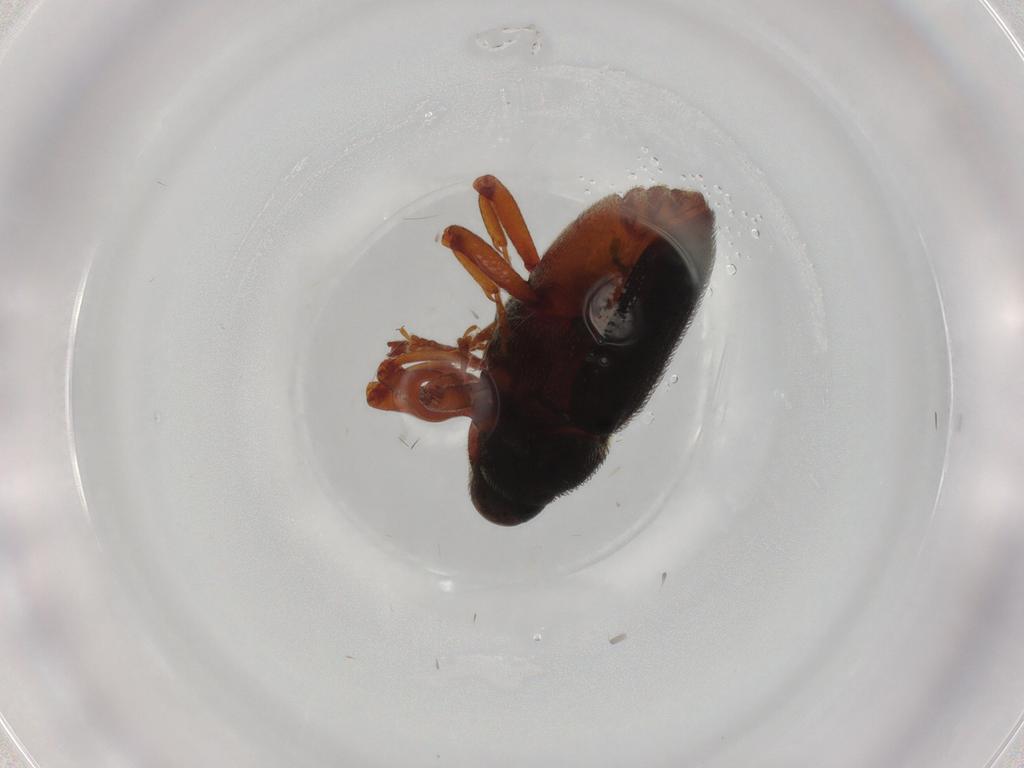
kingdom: Animalia
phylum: Arthropoda
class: Insecta
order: Coleoptera
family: Curculionidae
